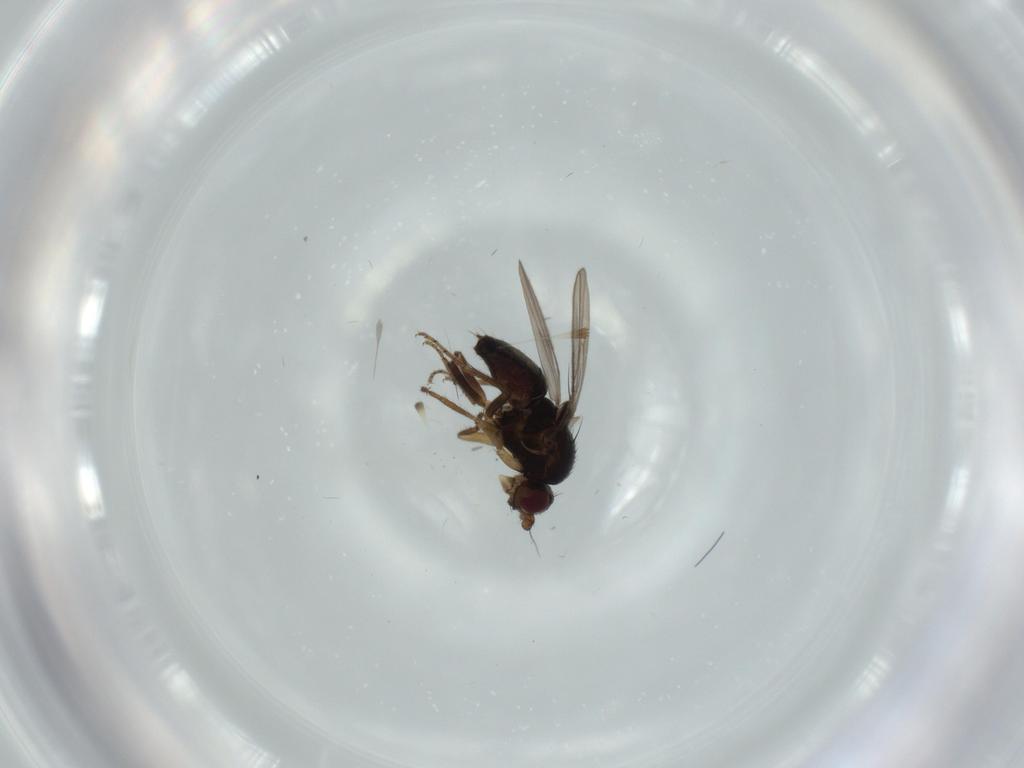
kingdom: Animalia
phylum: Arthropoda
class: Insecta
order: Diptera
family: Sphaeroceridae
